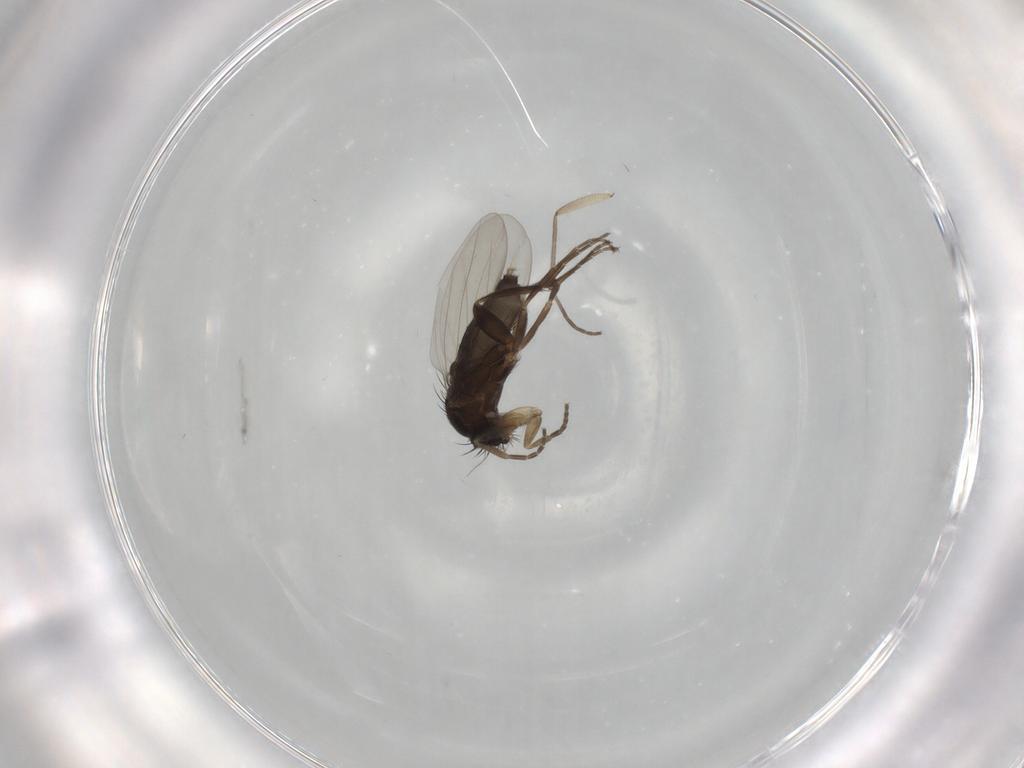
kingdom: Animalia
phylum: Arthropoda
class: Insecta
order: Diptera
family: Phoridae
